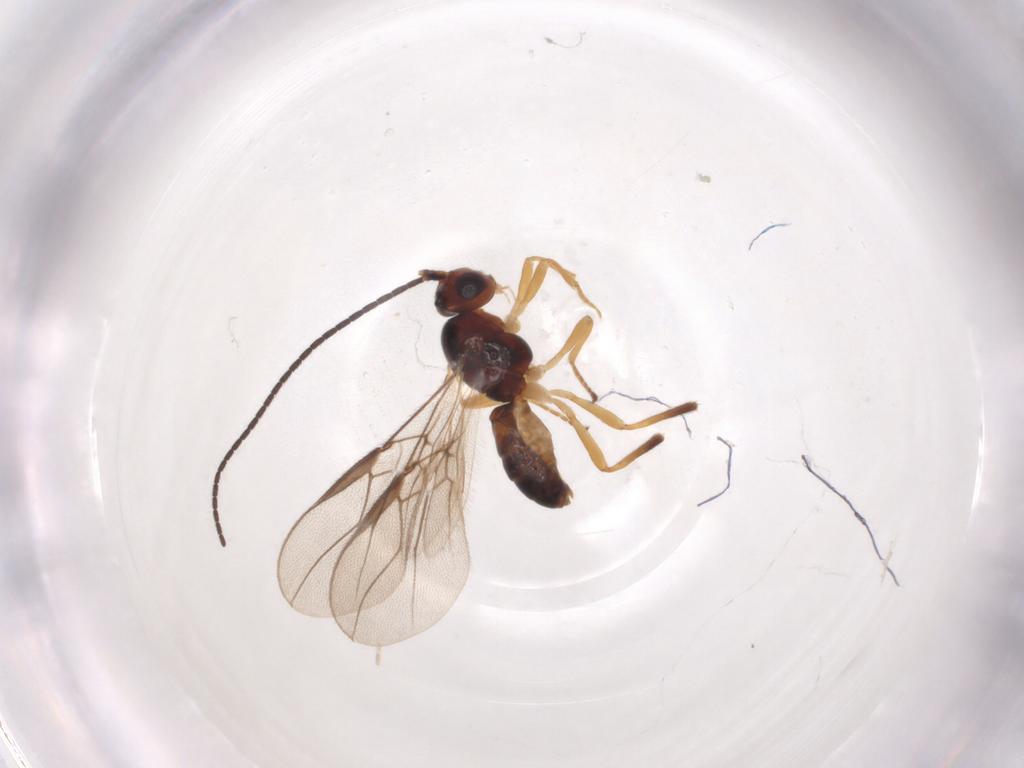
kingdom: Animalia
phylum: Arthropoda
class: Insecta
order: Hymenoptera
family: Braconidae
